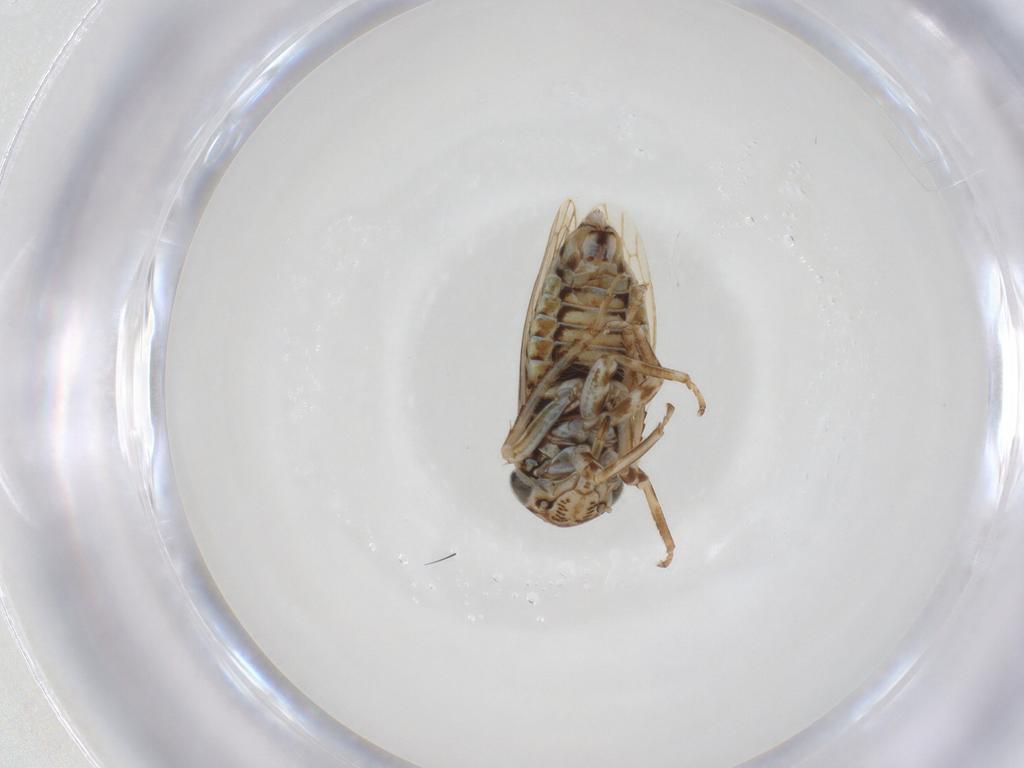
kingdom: Animalia
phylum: Arthropoda
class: Insecta
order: Hemiptera
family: Cicadellidae
